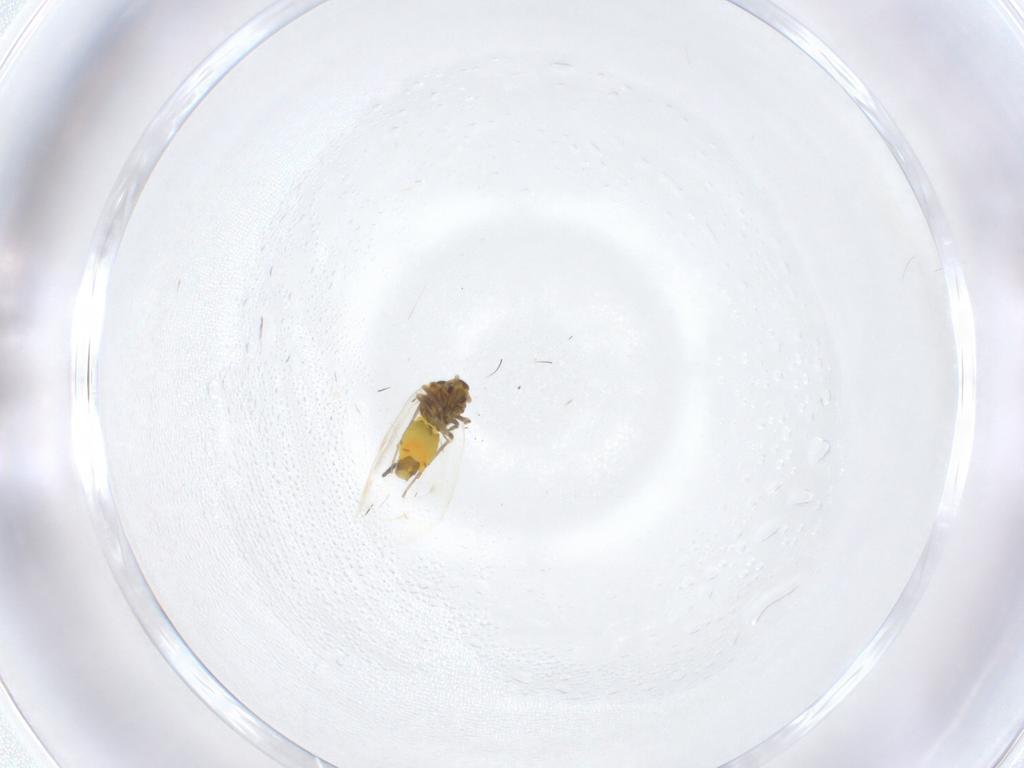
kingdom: Animalia
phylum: Arthropoda
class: Insecta
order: Hemiptera
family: Aleyrodidae
